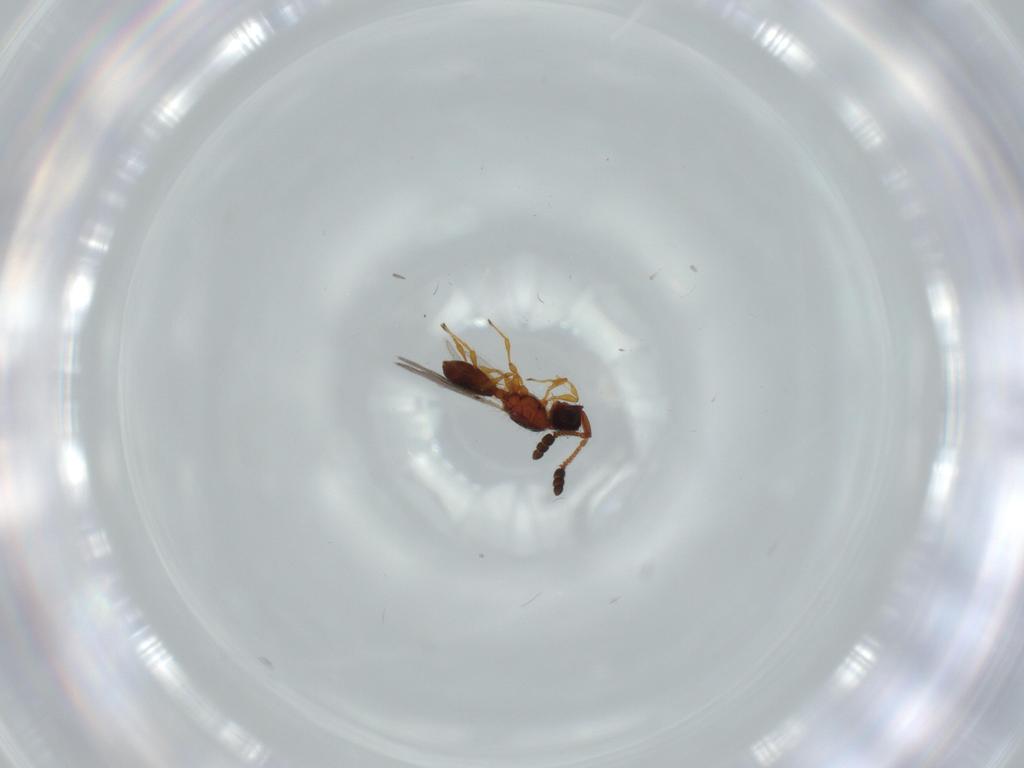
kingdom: Animalia
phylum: Arthropoda
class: Insecta
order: Hymenoptera
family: Diapriidae
